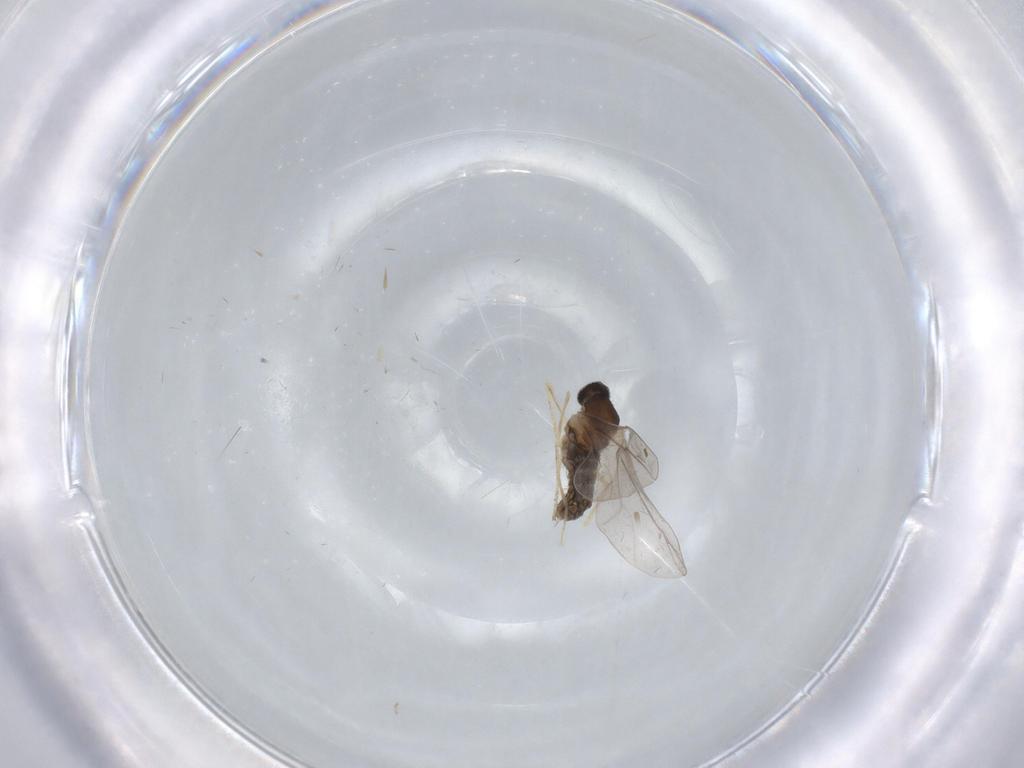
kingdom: Animalia
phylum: Arthropoda
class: Insecta
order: Diptera
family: Cecidomyiidae
